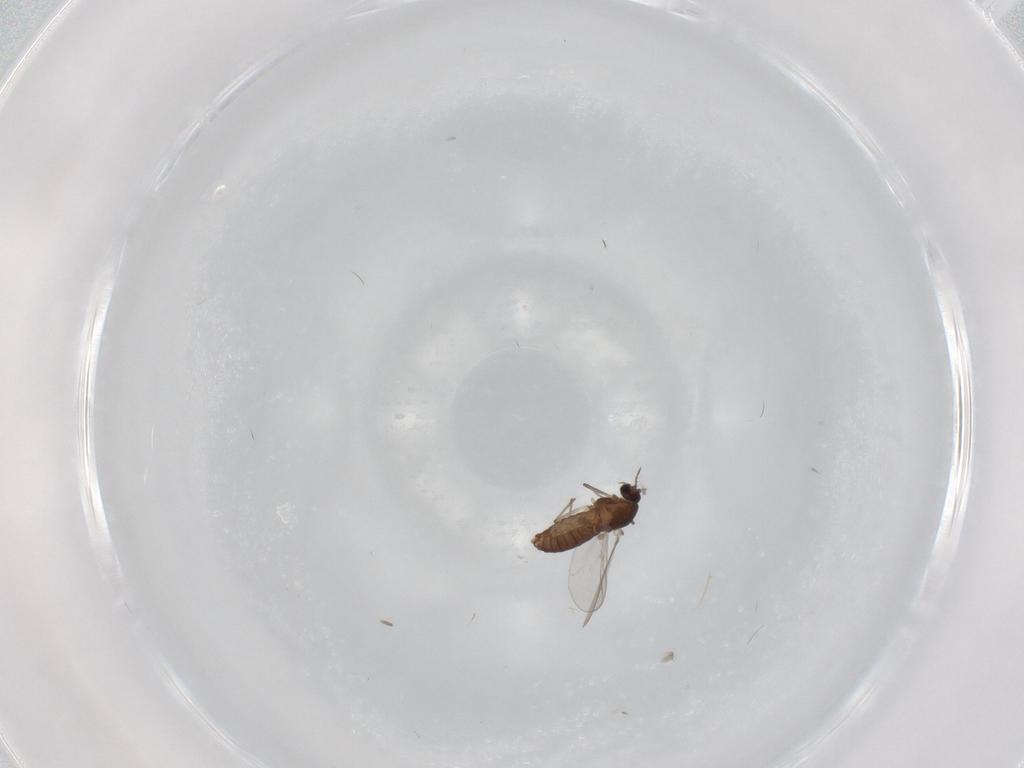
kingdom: Animalia
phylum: Arthropoda
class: Insecta
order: Diptera
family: Chironomidae
